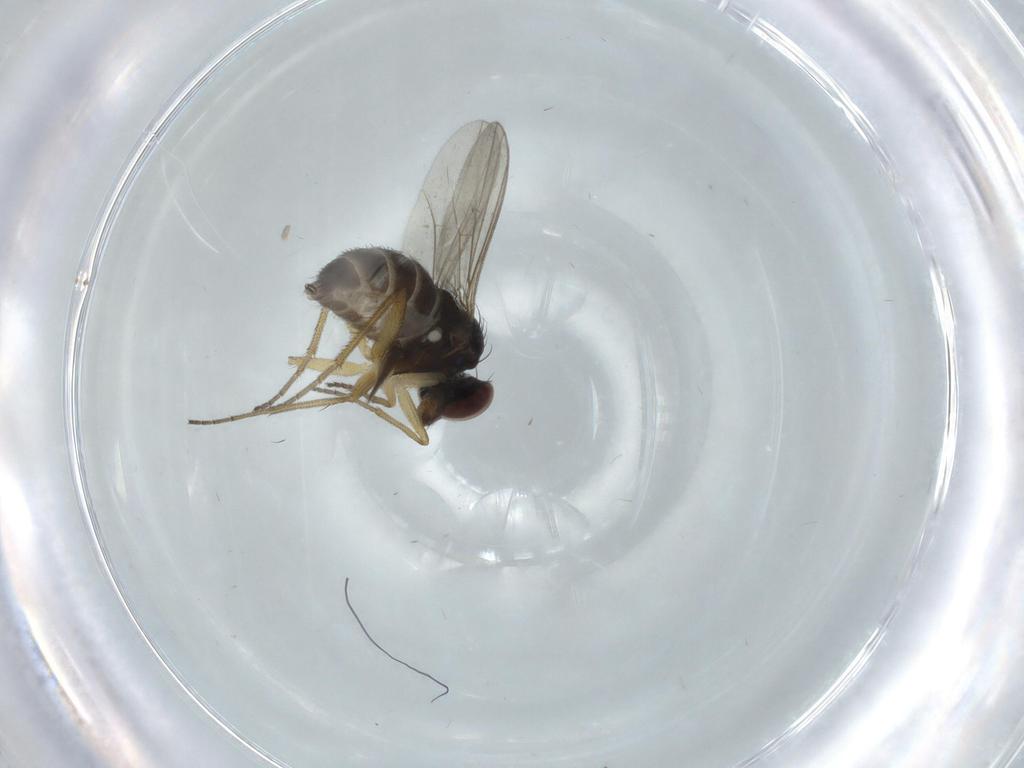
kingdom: Animalia
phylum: Arthropoda
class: Insecta
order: Diptera
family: Dolichopodidae
